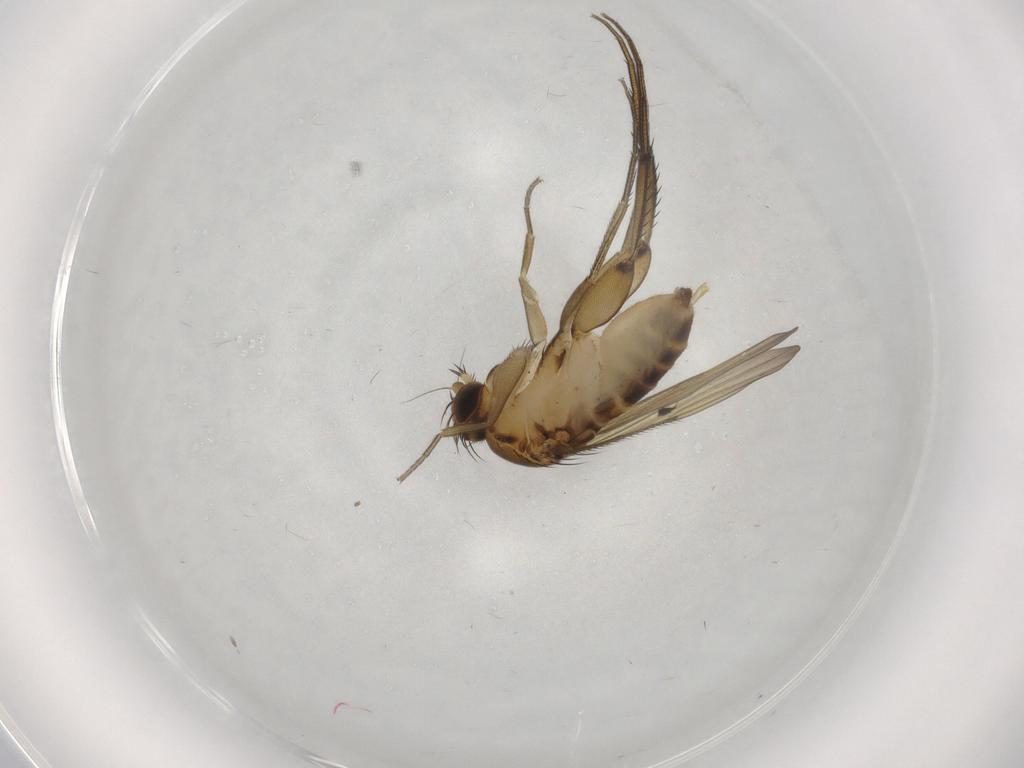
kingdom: Animalia
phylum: Arthropoda
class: Insecta
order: Diptera
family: Phoridae
